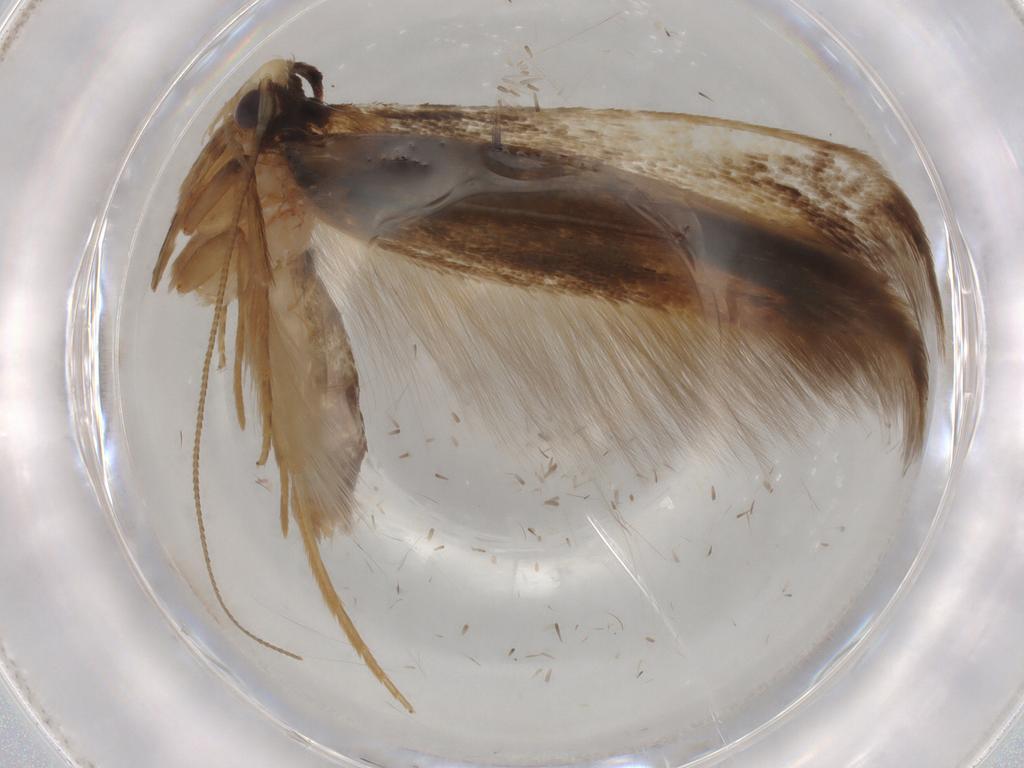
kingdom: Animalia
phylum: Arthropoda
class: Insecta
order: Lepidoptera
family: Tineidae
